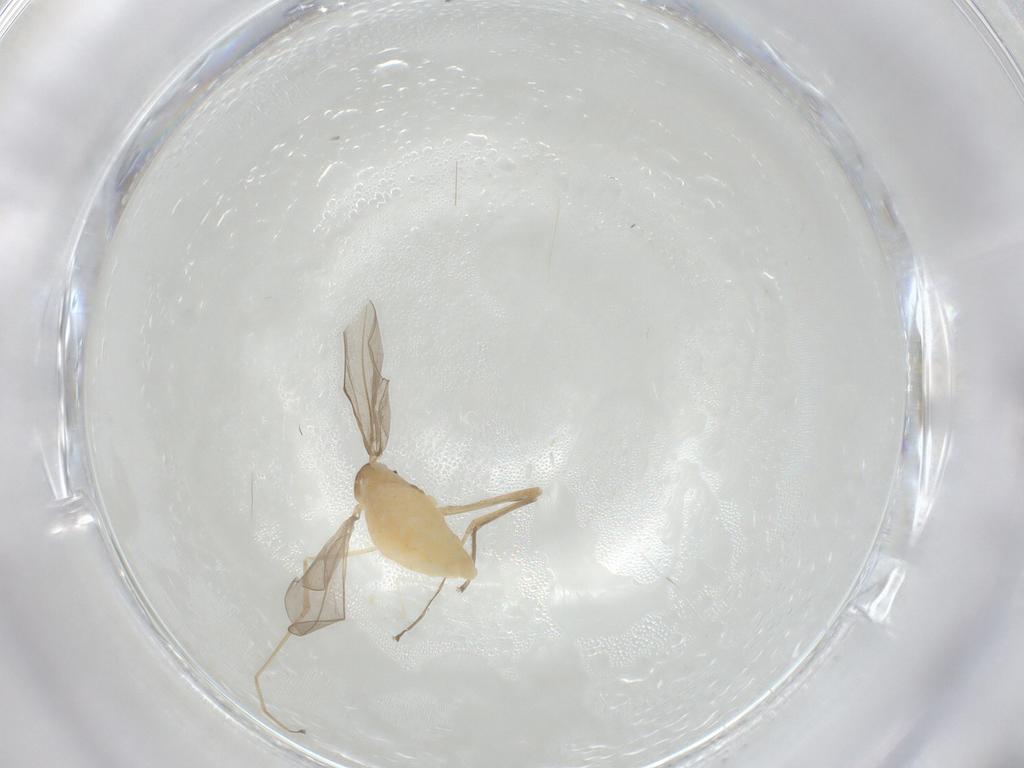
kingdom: Animalia
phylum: Arthropoda
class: Insecta
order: Diptera
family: Cecidomyiidae
